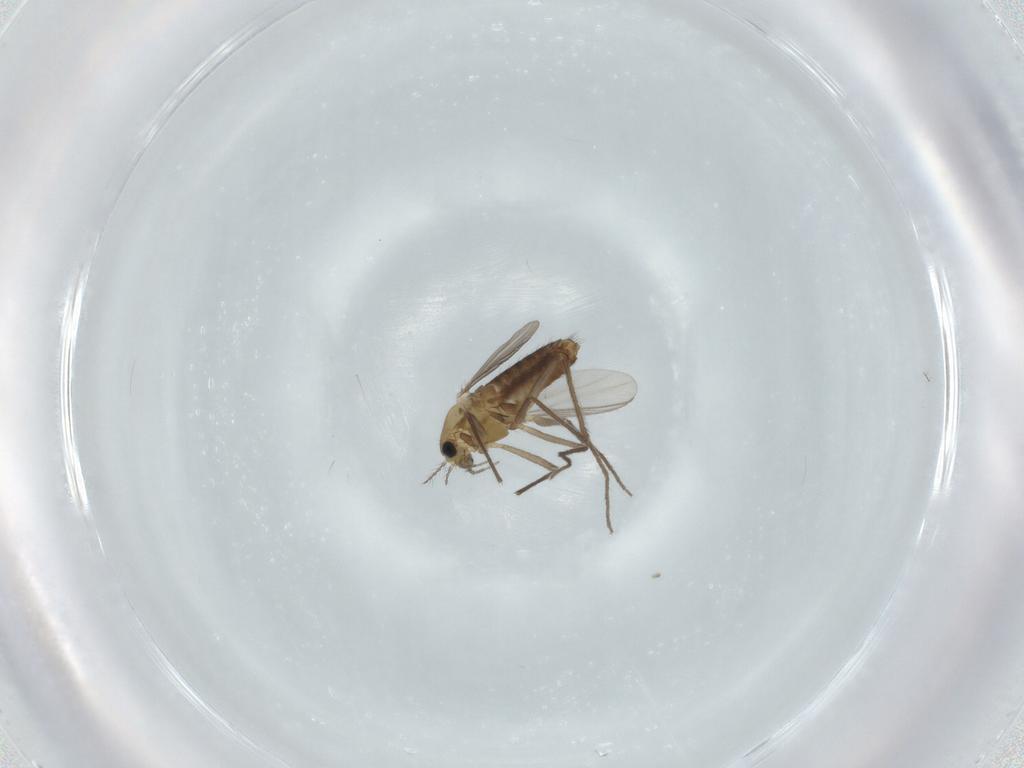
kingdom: Animalia
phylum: Arthropoda
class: Insecta
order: Diptera
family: Chironomidae
